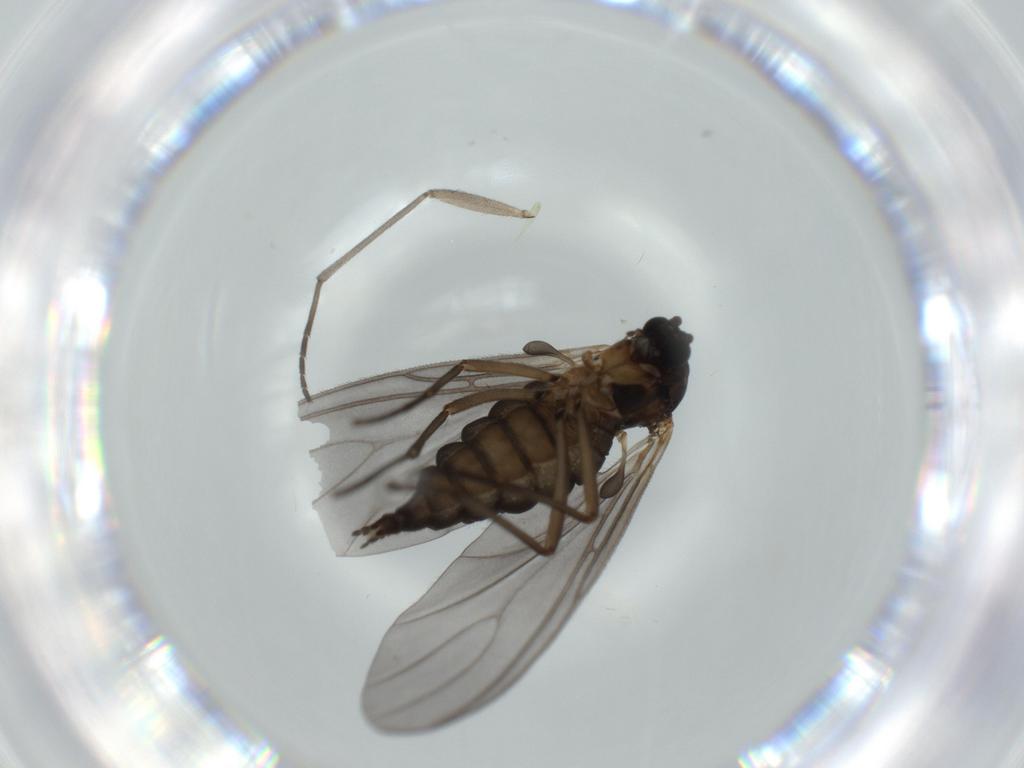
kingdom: Animalia
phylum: Arthropoda
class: Insecta
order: Diptera
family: Sciaridae
